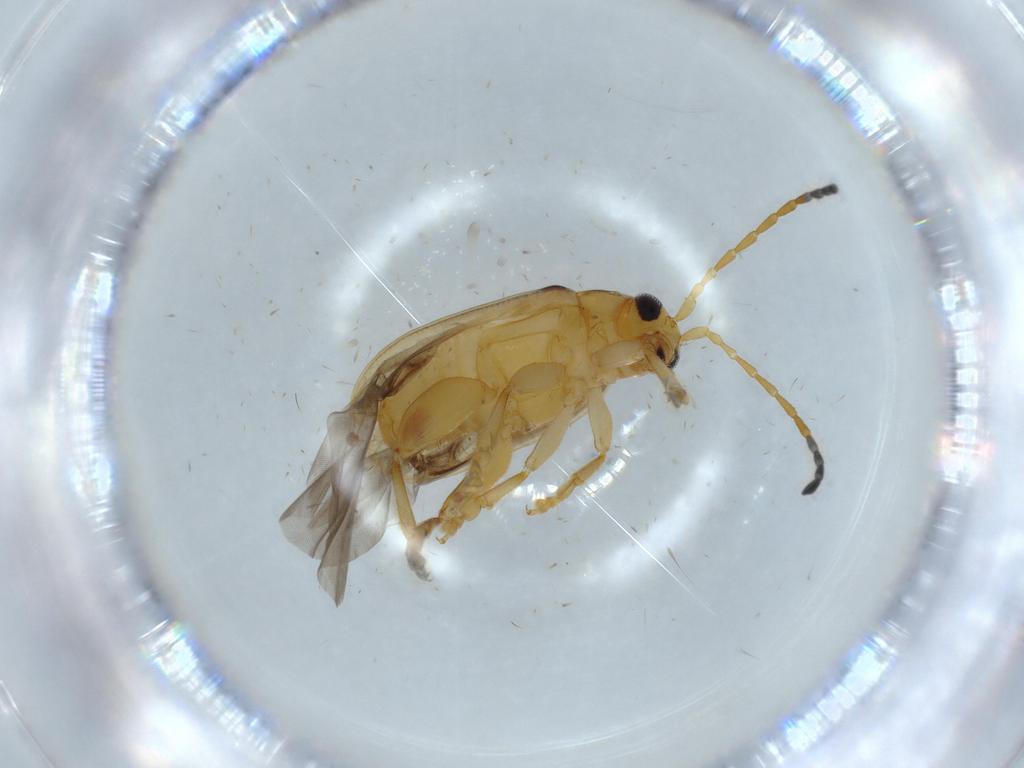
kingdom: Animalia
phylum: Arthropoda
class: Insecta
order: Coleoptera
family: Chrysomelidae
